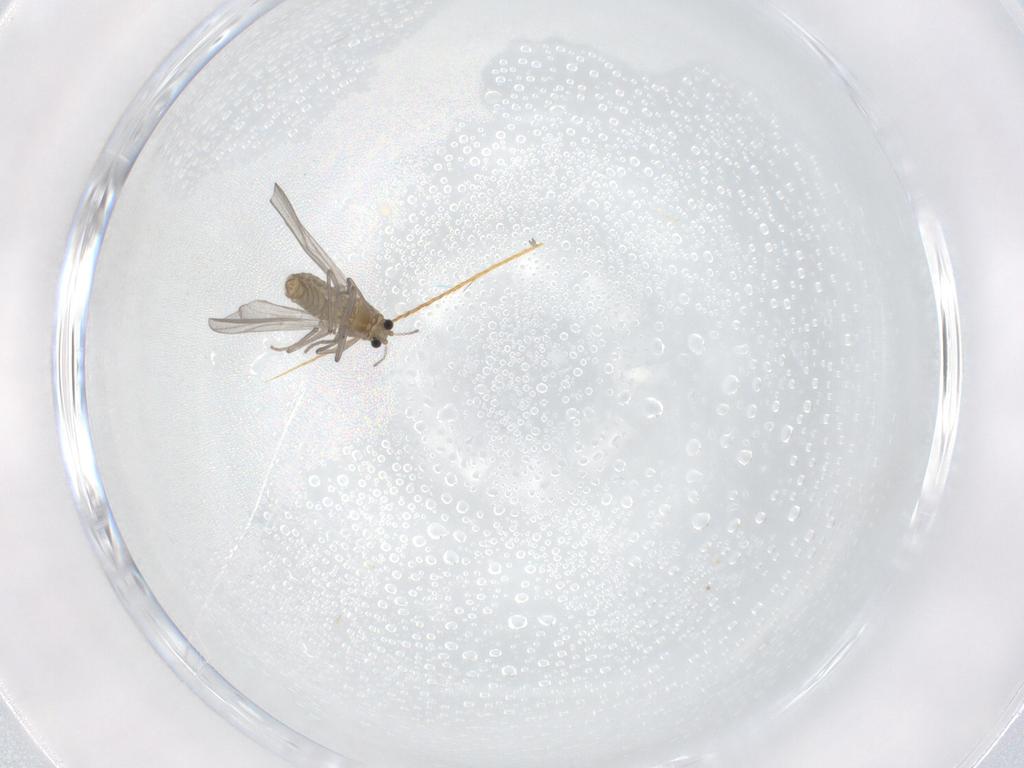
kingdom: Animalia
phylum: Arthropoda
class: Insecta
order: Diptera
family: Chironomidae
